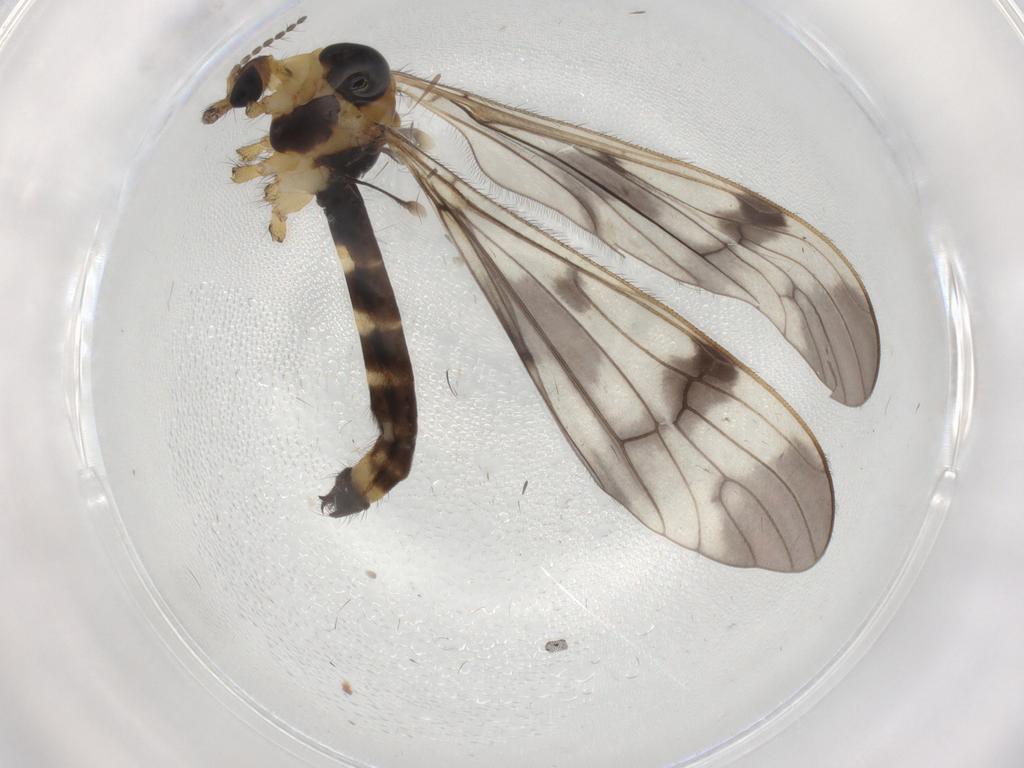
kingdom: Animalia
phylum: Arthropoda
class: Insecta
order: Diptera
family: Limoniidae
